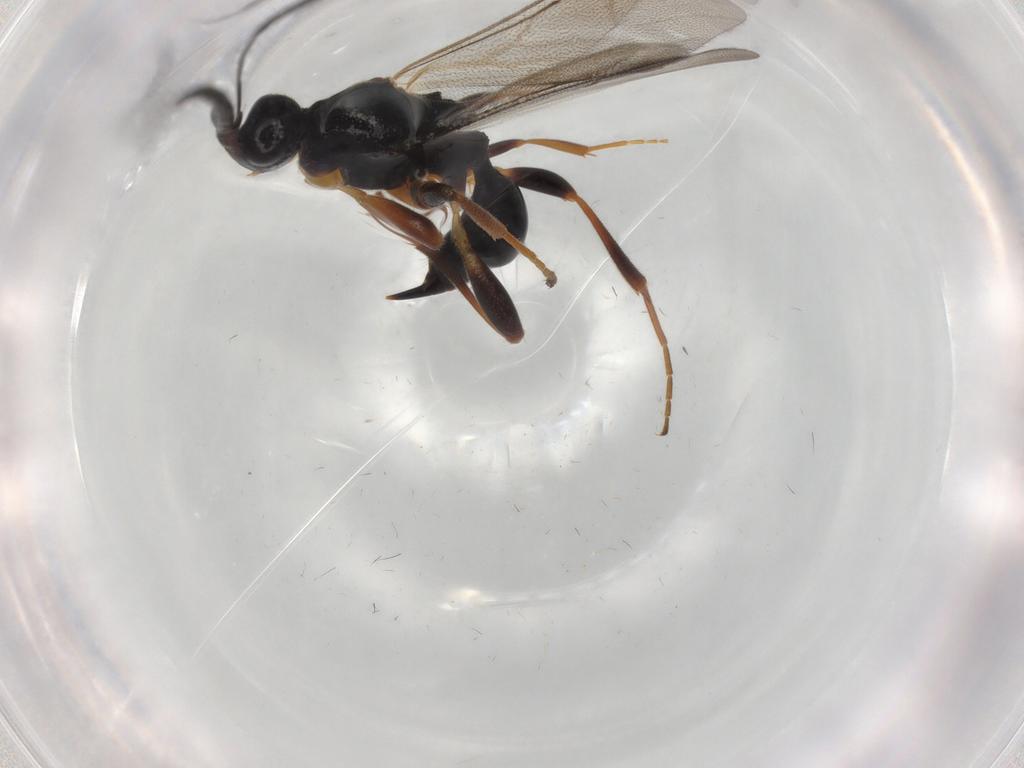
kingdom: Animalia
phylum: Arthropoda
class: Insecta
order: Hymenoptera
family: Proctotrupidae
